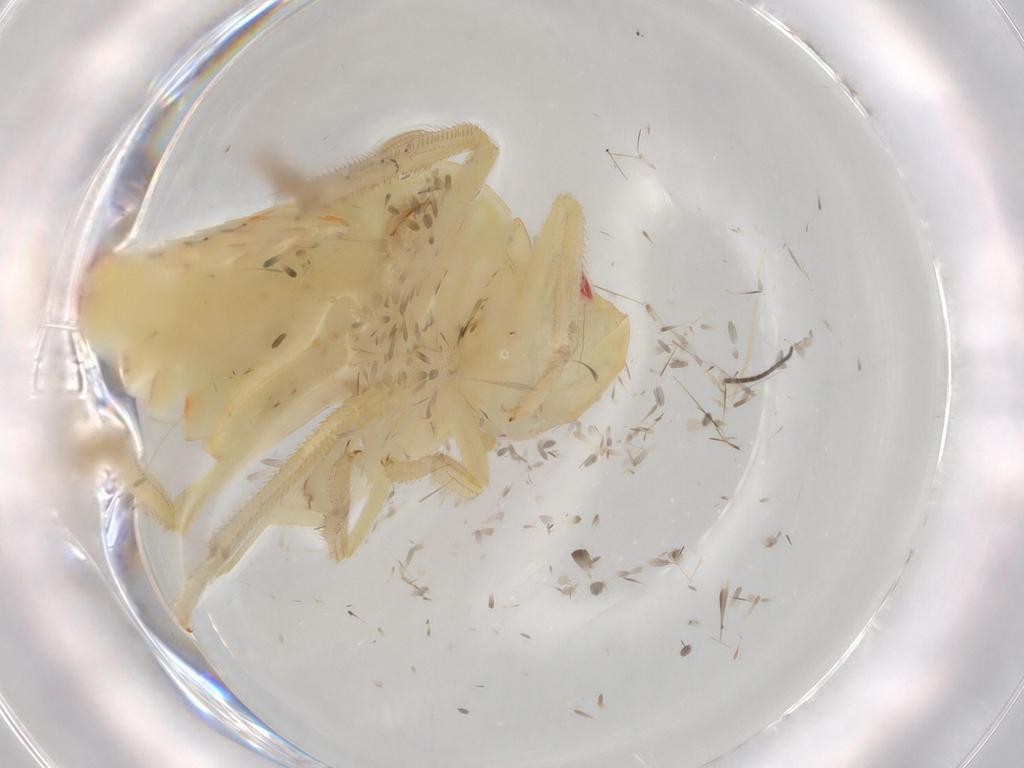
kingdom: Animalia
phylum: Arthropoda
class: Insecta
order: Hemiptera
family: Tropiduchidae
